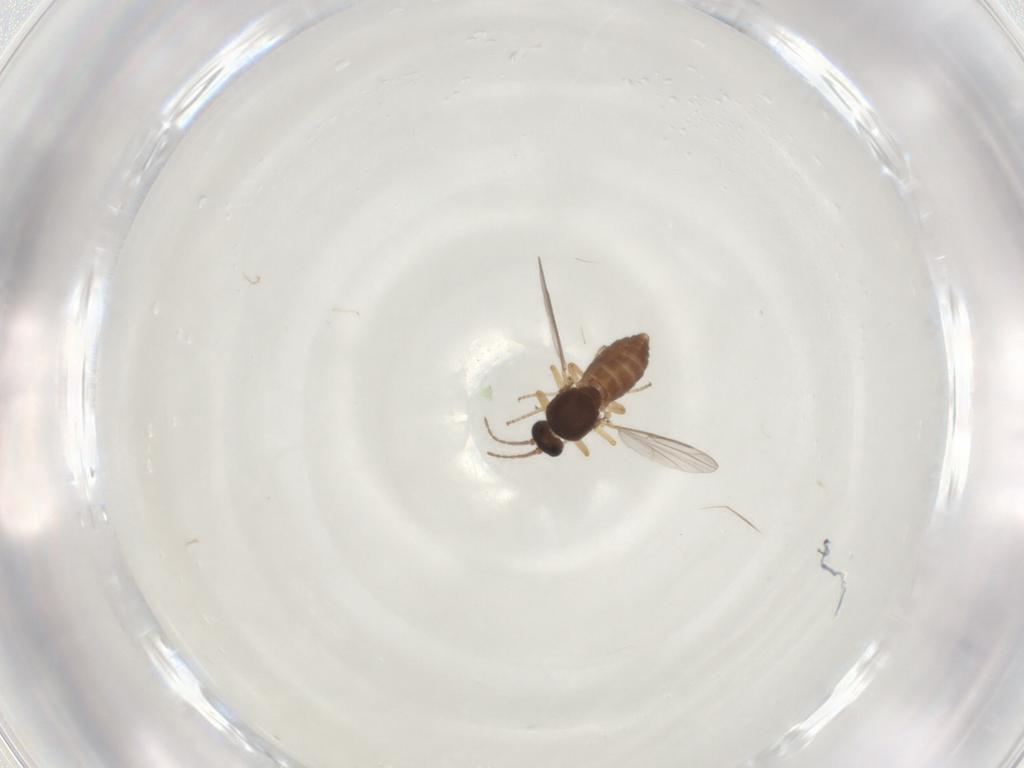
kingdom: Animalia
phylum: Arthropoda
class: Insecta
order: Diptera
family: Ceratopogonidae
